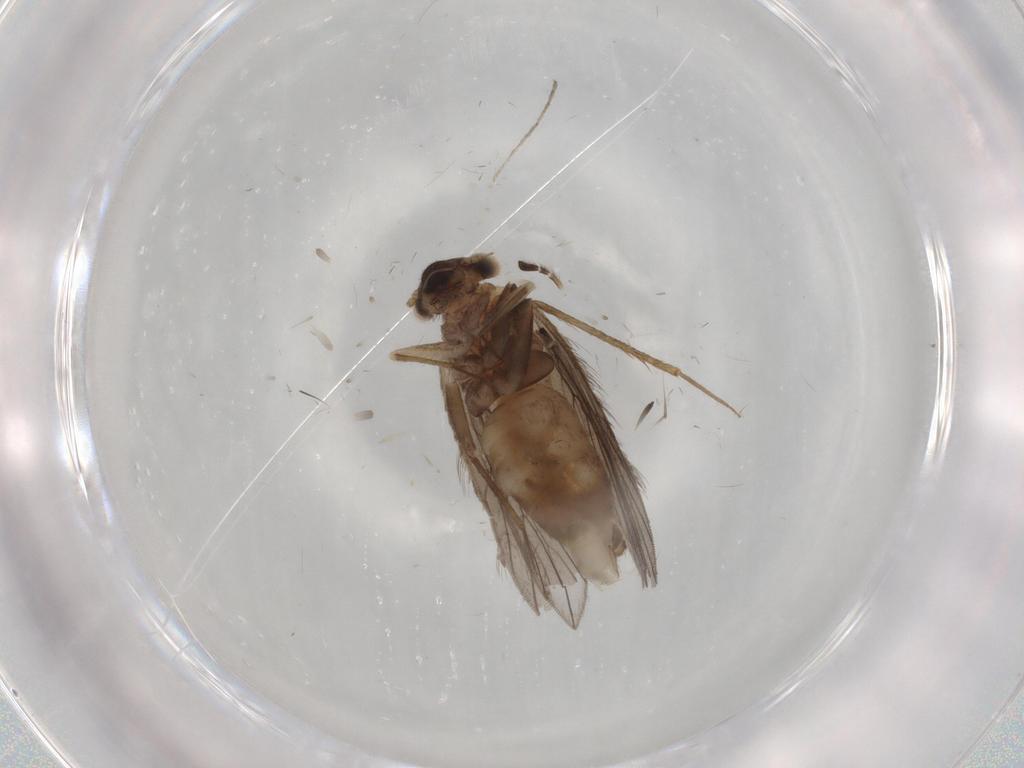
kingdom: Animalia
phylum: Arthropoda
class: Insecta
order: Psocodea
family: Lepidopsocidae
